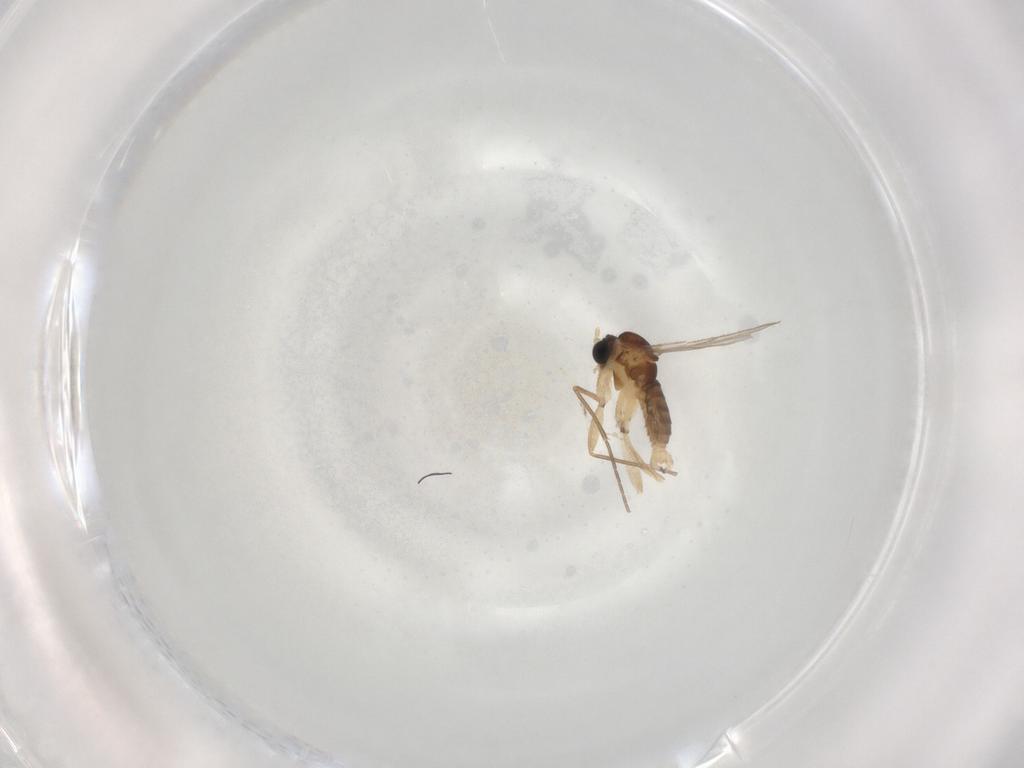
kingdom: Animalia
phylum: Arthropoda
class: Insecta
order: Diptera
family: Sciaridae
